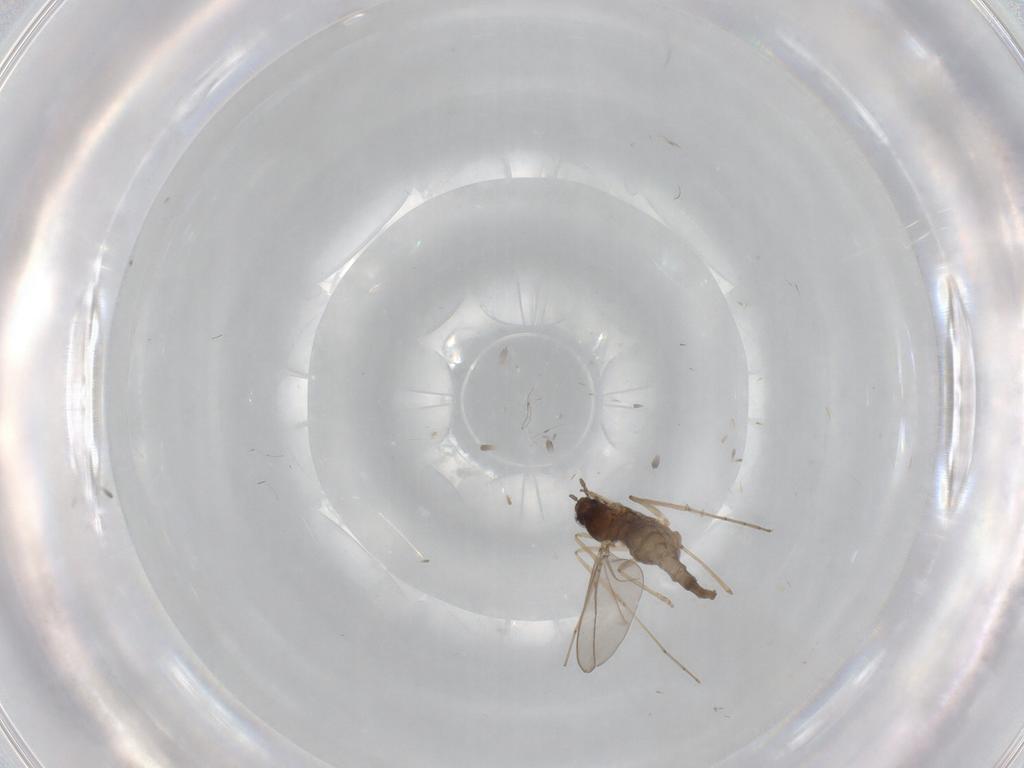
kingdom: Animalia
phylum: Arthropoda
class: Insecta
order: Diptera
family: Cecidomyiidae
